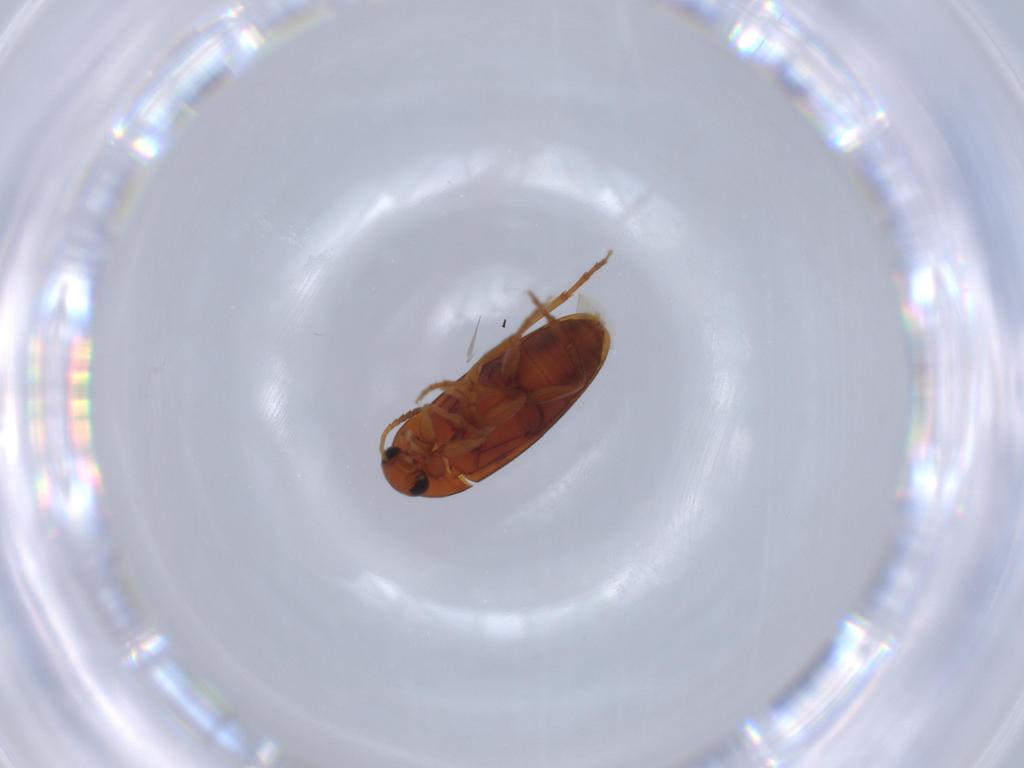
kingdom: Animalia
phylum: Arthropoda
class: Insecta
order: Coleoptera
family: Scraptiidae
